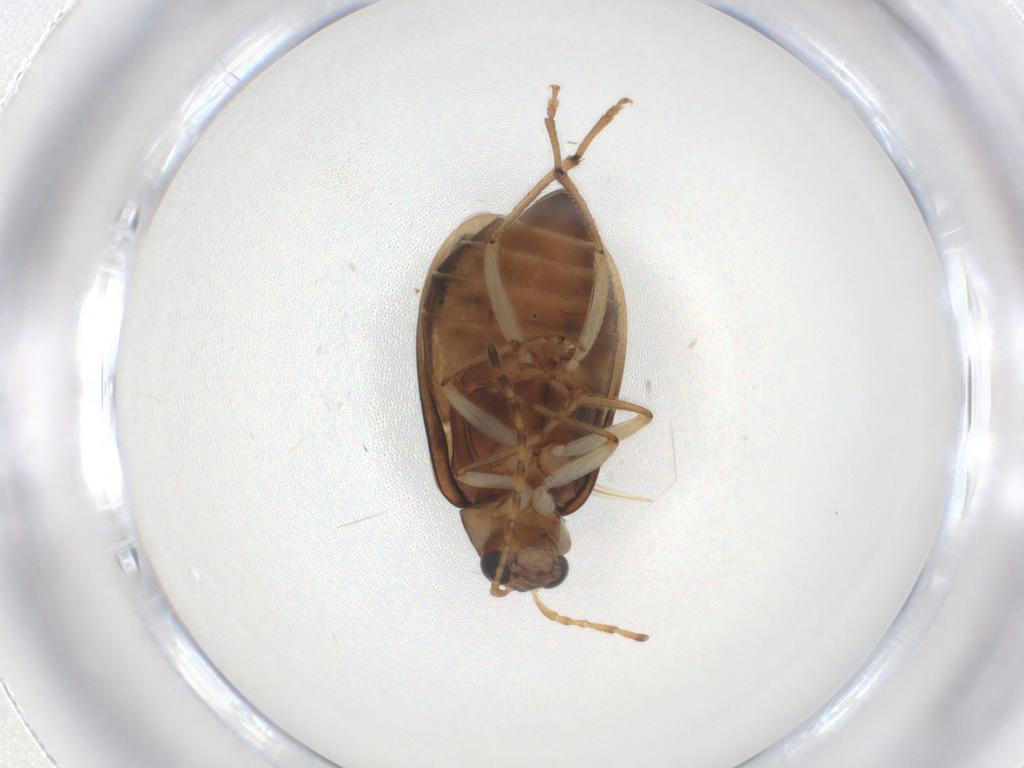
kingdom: Animalia
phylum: Arthropoda
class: Insecta
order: Coleoptera
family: Chrysomelidae
